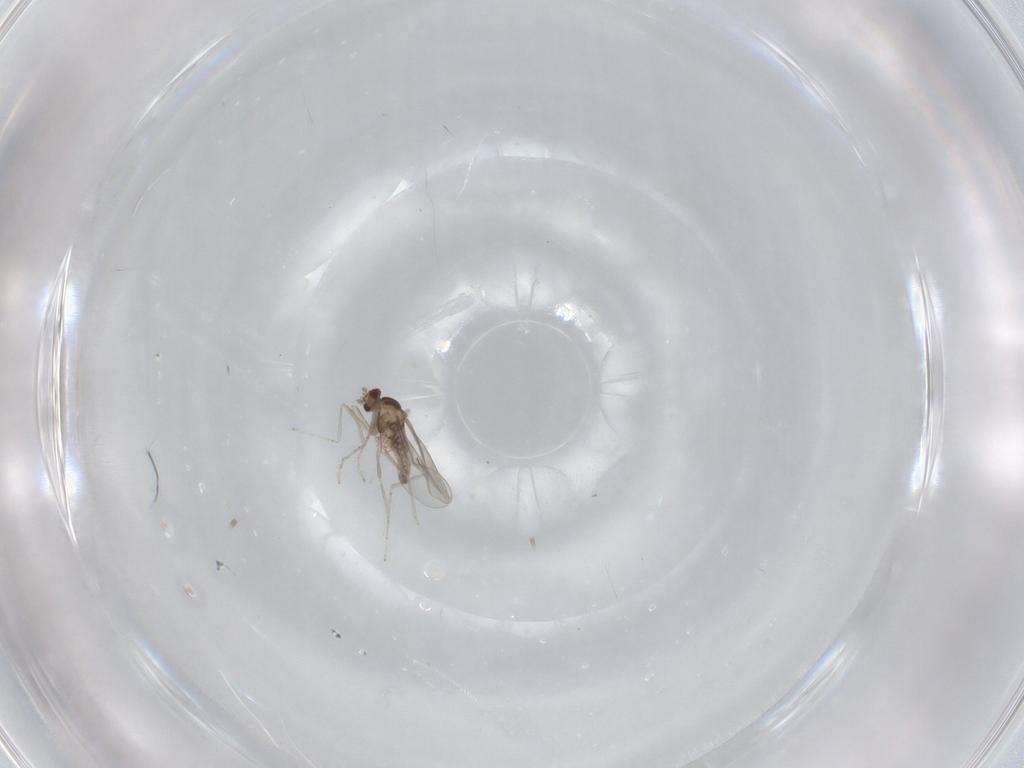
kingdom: Animalia
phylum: Arthropoda
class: Insecta
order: Diptera
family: Cecidomyiidae
